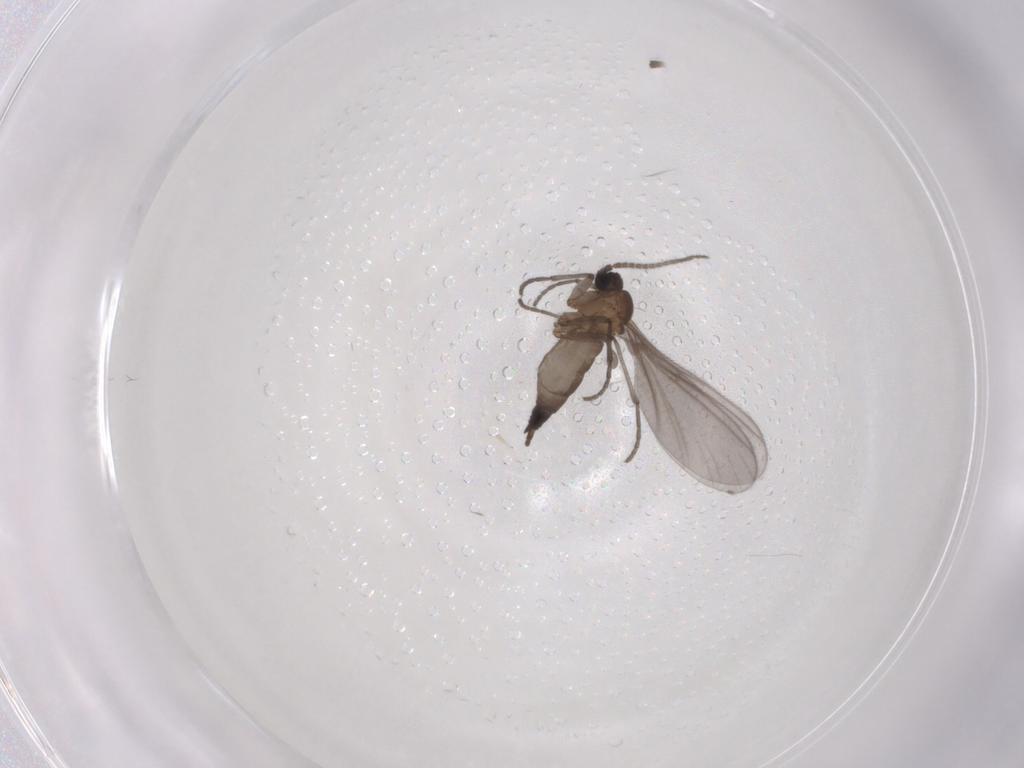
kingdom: Animalia
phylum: Arthropoda
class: Insecta
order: Diptera
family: Sciaridae
